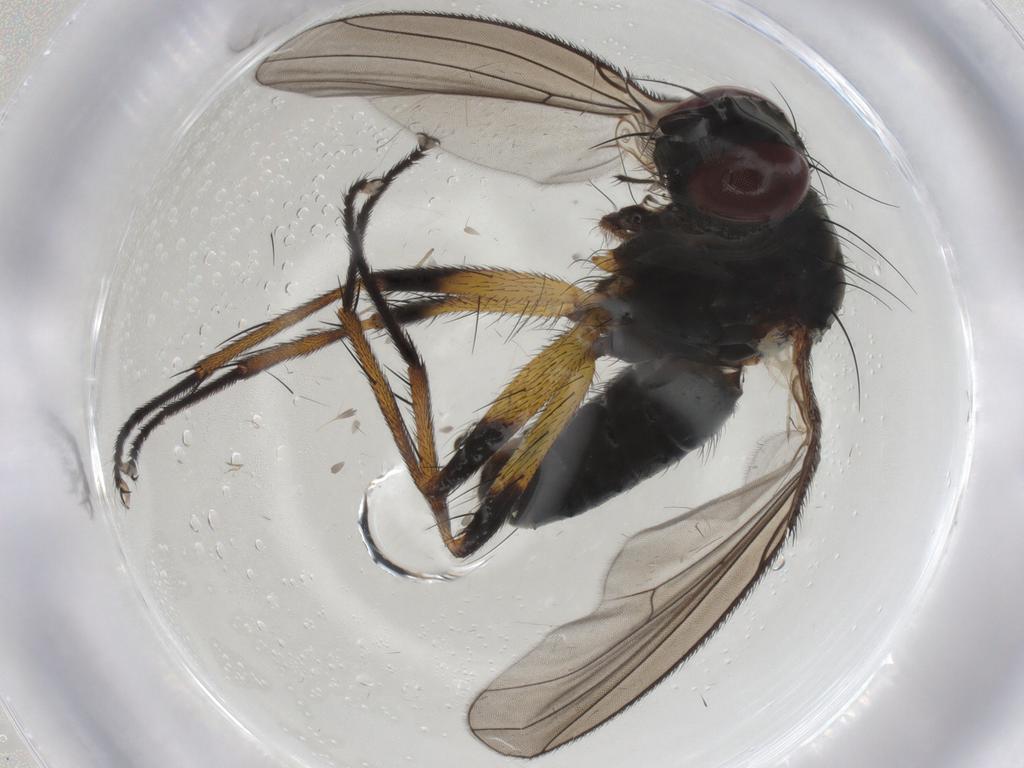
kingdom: Animalia
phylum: Arthropoda
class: Insecta
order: Diptera
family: Muscidae
